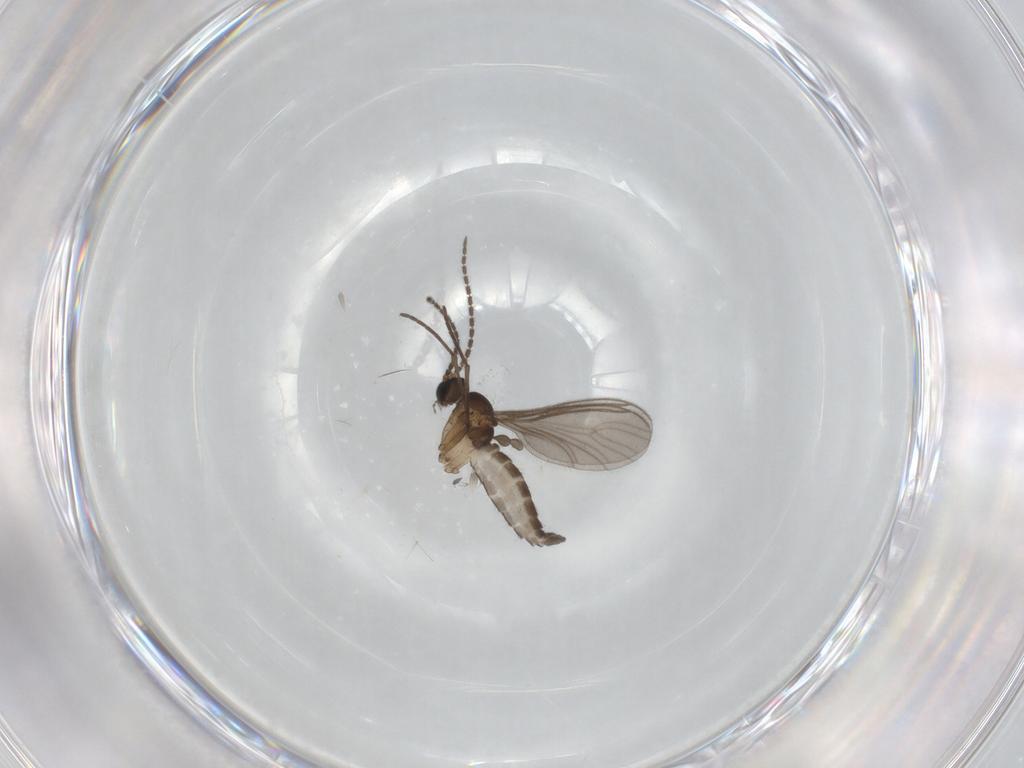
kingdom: Animalia
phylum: Arthropoda
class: Insecta
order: Diptera
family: Sciaridae
